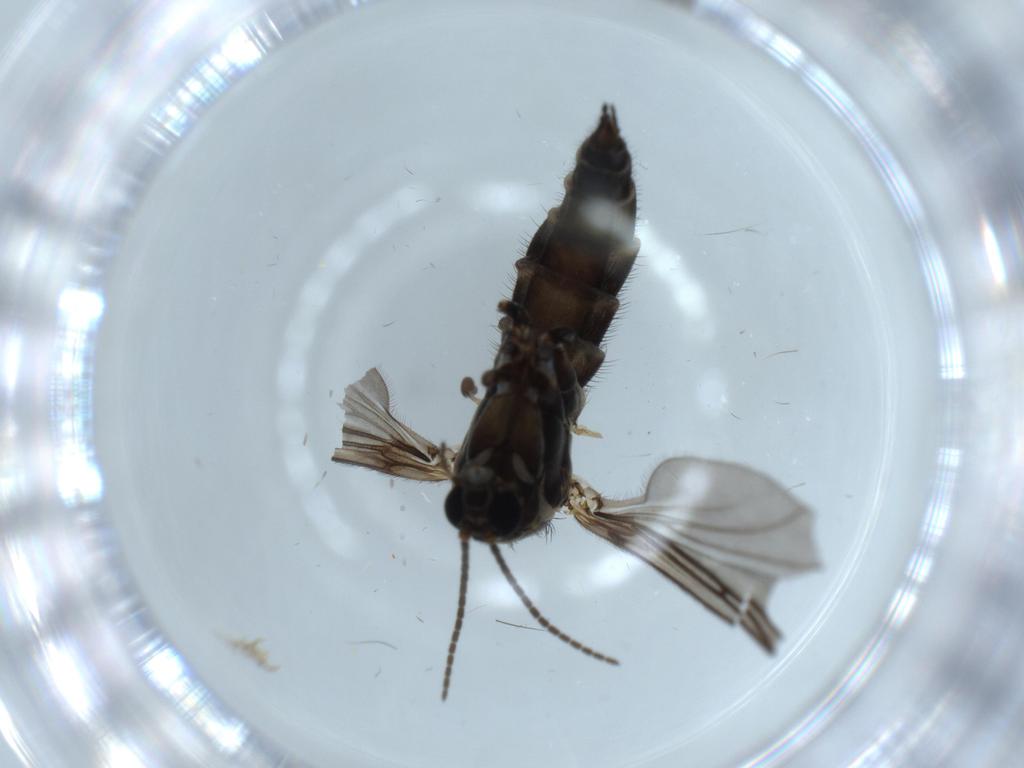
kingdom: Animalia
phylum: Arthropoda
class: Insecta
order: Diptera
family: Sciaridae
